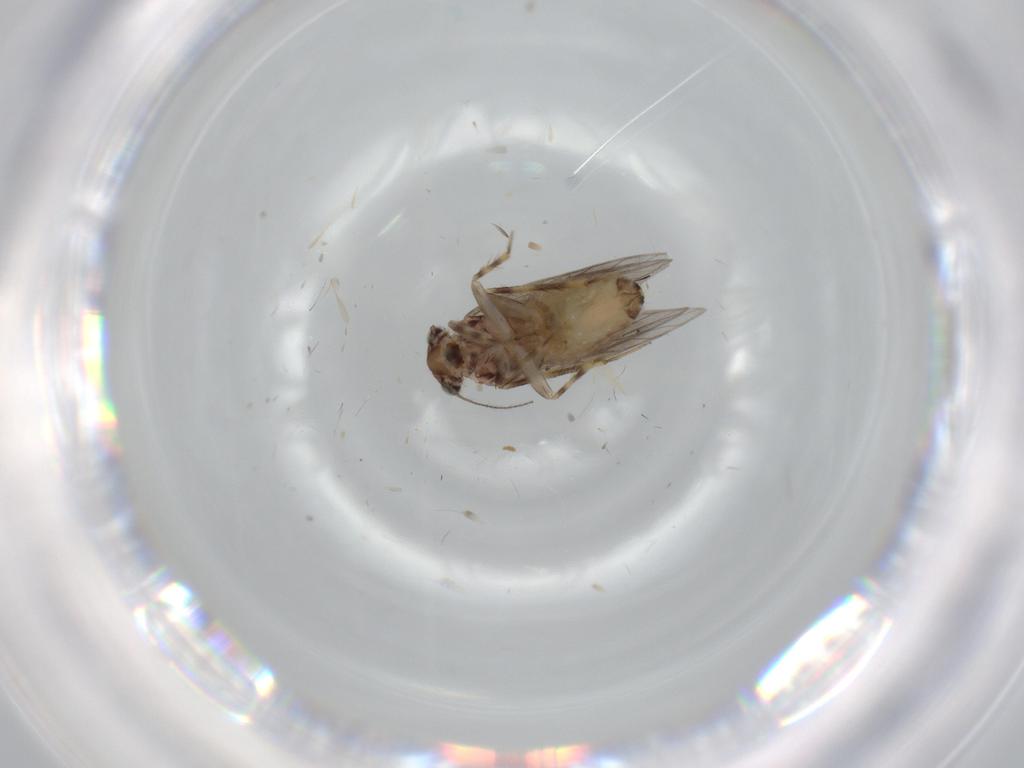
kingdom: Animalia
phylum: Arthropoda
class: Insecta
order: Psocodea
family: Lepidopsocidae
